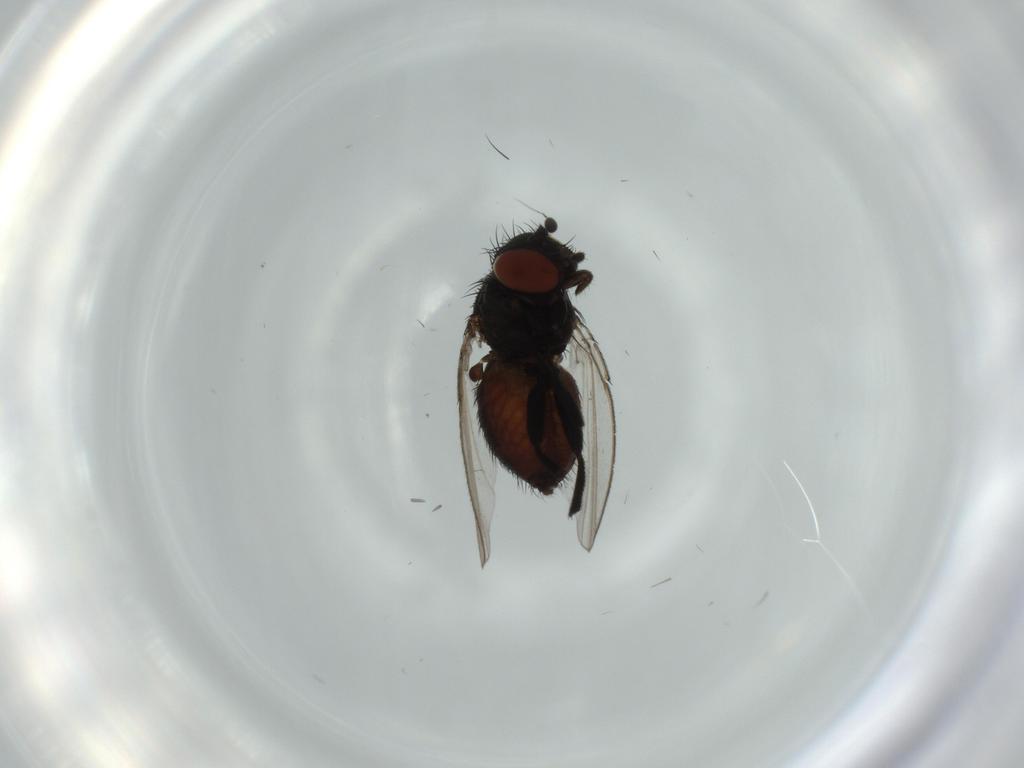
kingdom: Animalia
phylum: Arthropoda
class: Insecta
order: Diptera
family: Milichiidae
